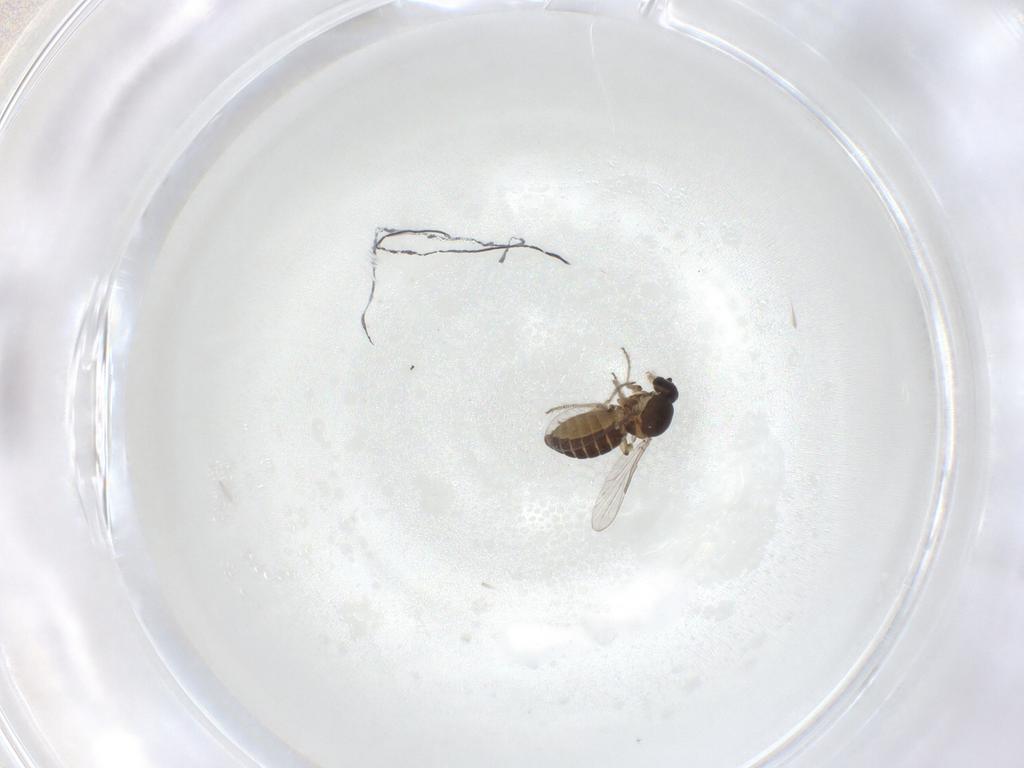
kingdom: Animalia
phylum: Arthropoda
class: Insecta
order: Diptera
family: Ceratopogonidae
